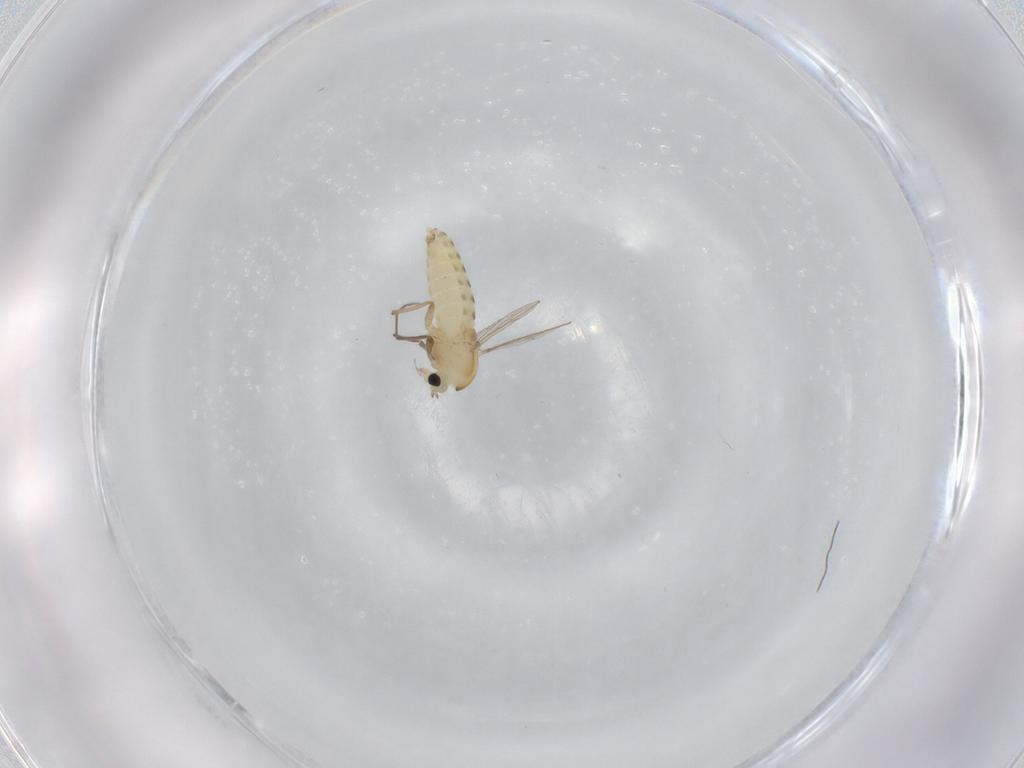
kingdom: Animalia
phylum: Arthropoda
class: Insecta
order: Diptera
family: Chironomidae
